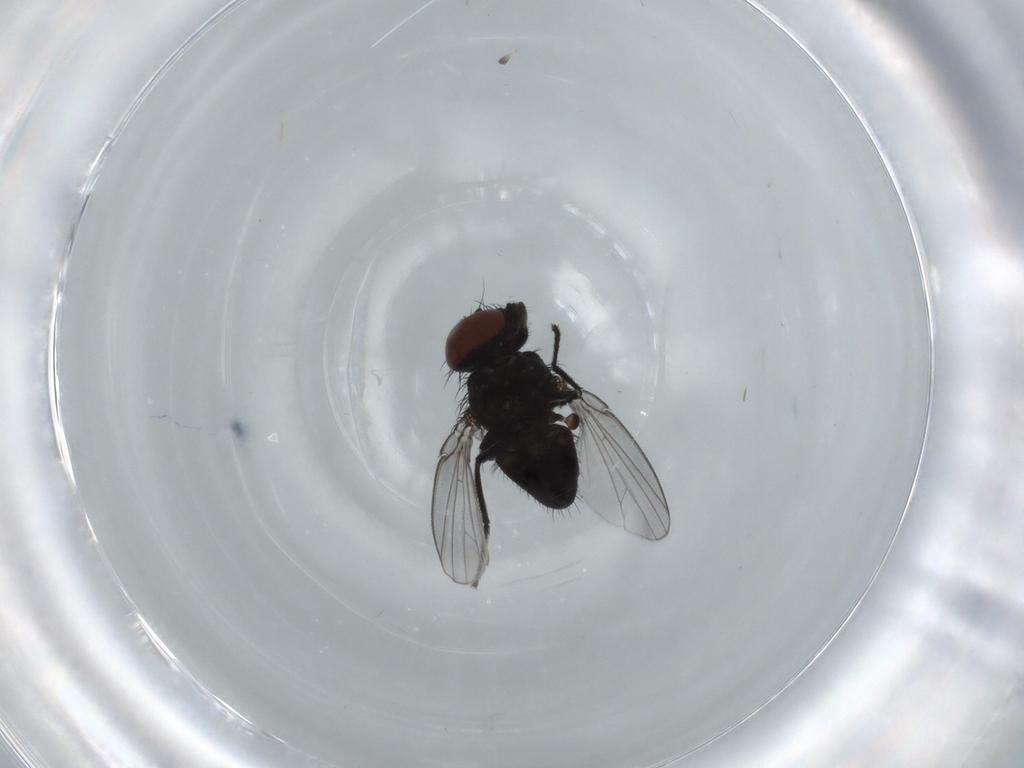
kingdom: Animalia
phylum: Arthropoda
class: Insecta
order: Diptera
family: Milichiidae
